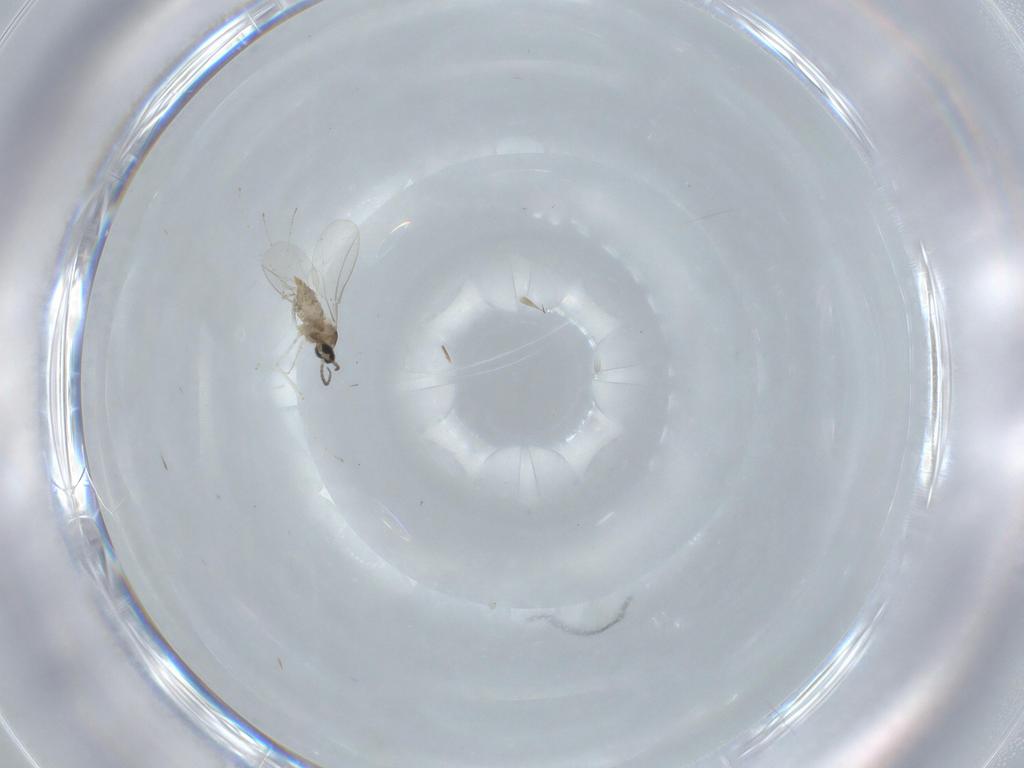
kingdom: Animalia
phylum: Arthropoda
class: Insecta
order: Diptera
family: Cecidomyiidae
